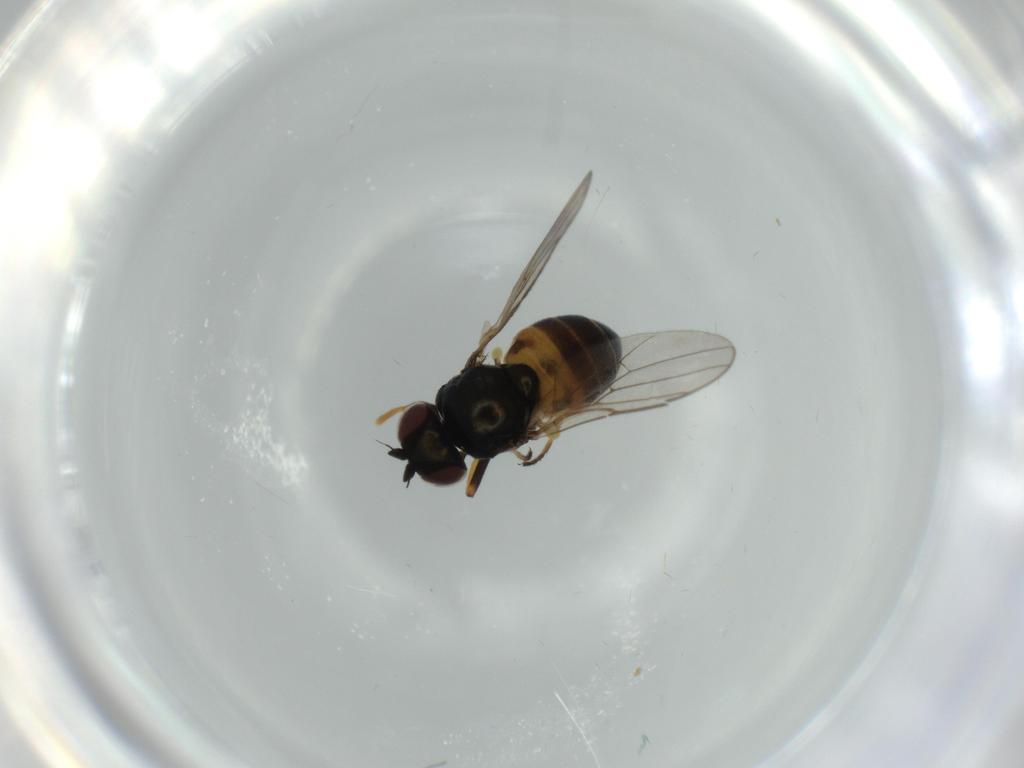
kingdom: Animalia
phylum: Arthropoda
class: Insecta
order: Diptera
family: Chloropidae
